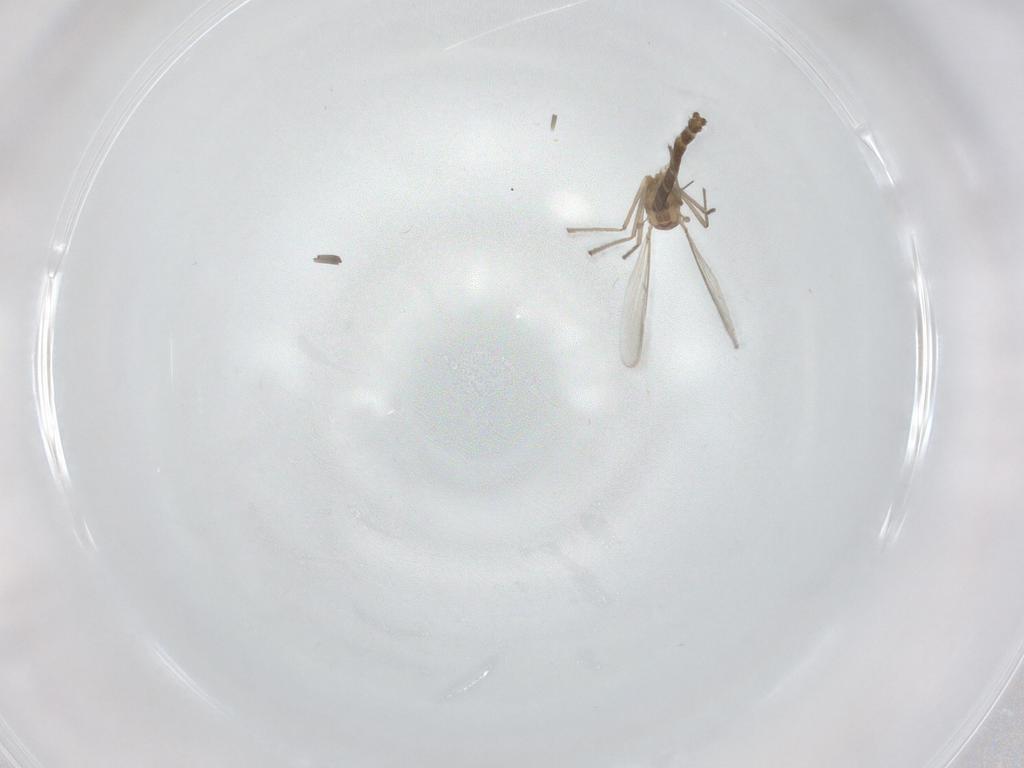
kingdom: Animalia
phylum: Arthropoda
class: Insecta
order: Diptera
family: Chironomidae
